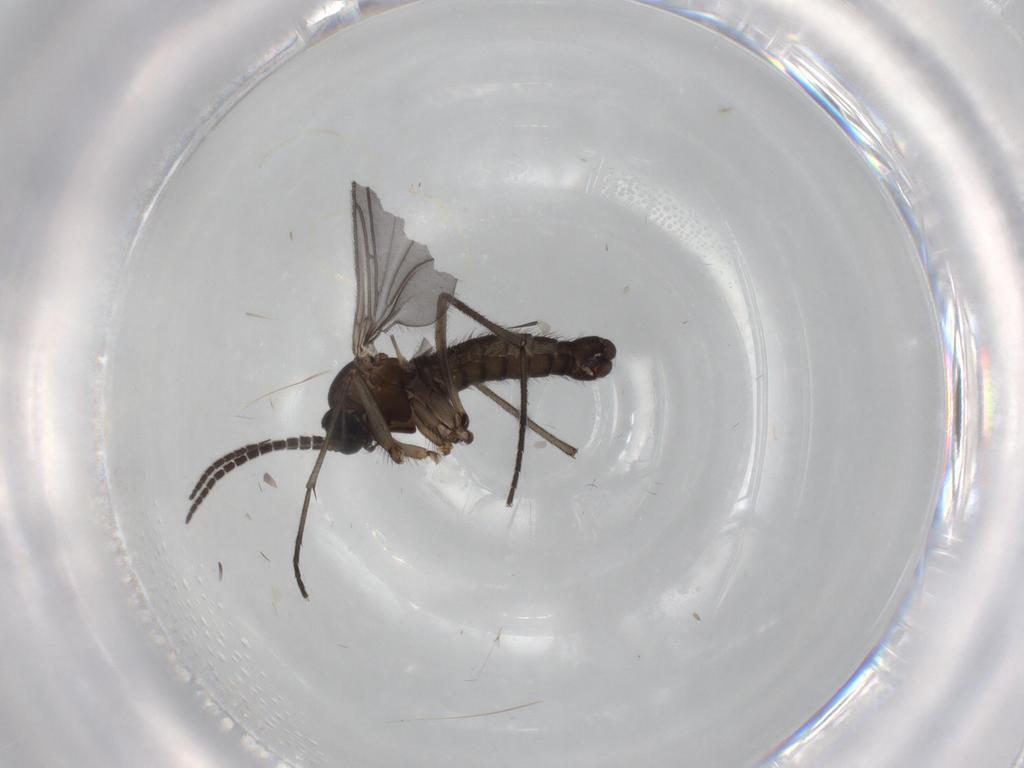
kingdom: Animalia
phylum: Arthropoda
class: Insecta
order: Diptera
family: Sciaridae
